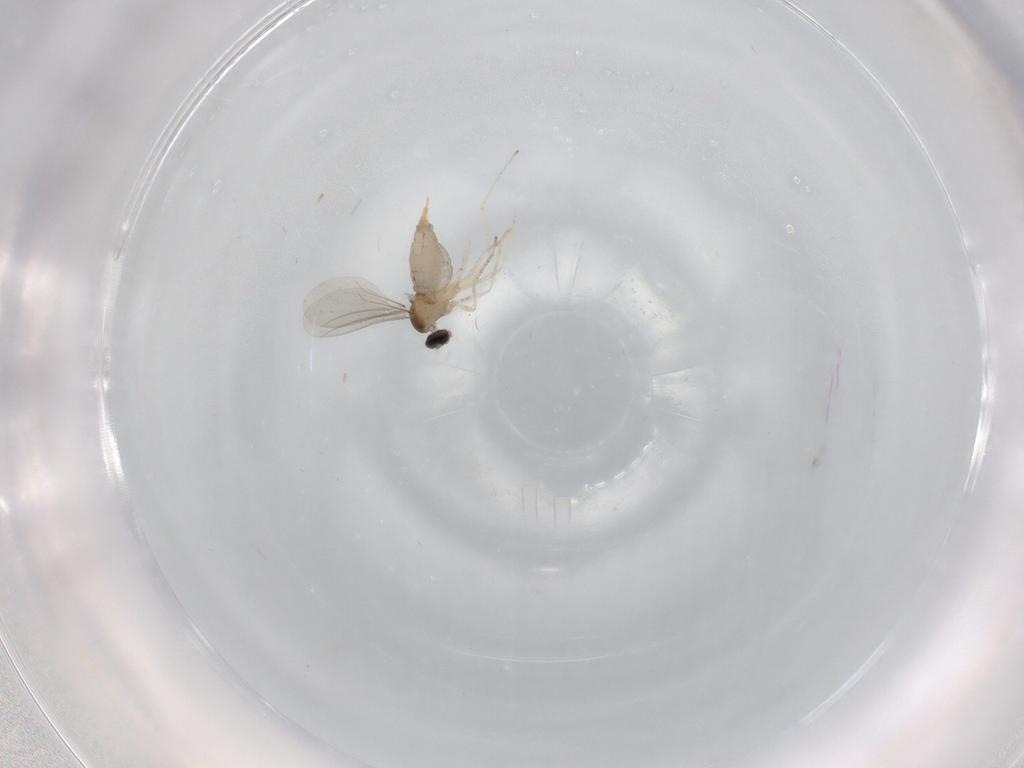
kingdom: Animalia
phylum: Arthropoda
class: Insecta
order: Diptera
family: Cecidomyiidae
